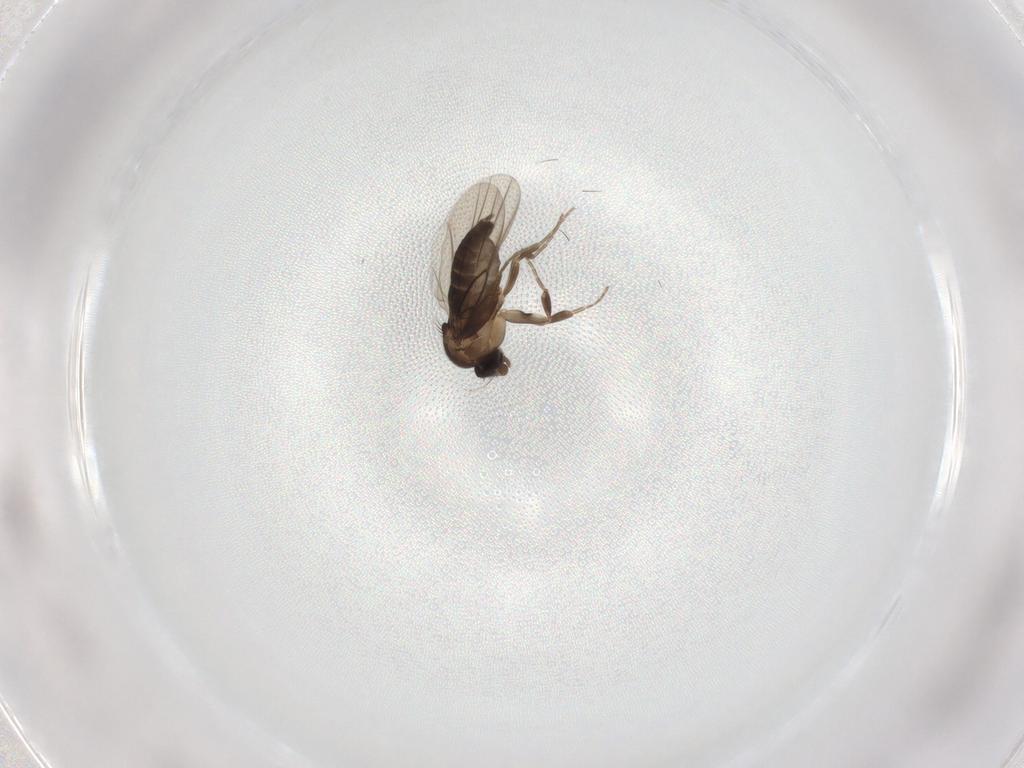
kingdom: Animalia
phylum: Arthropoda
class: Insecta
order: Diptera
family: Phoridae
